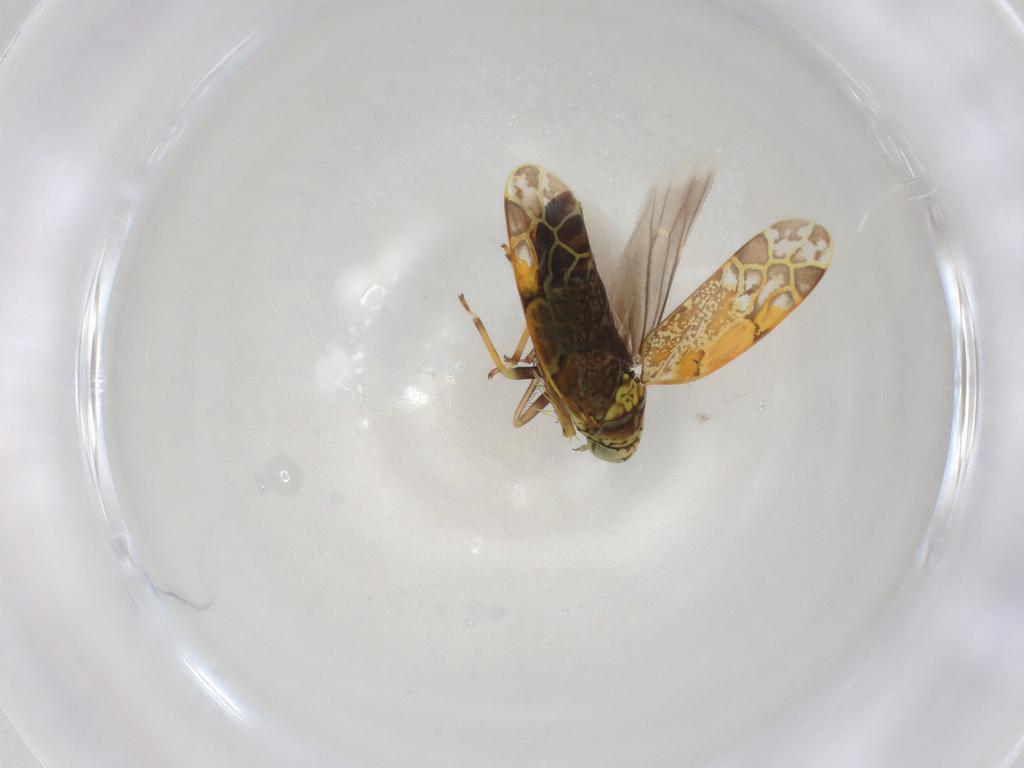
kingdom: Animalia
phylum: Arthropoda
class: Insecta
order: Hemiptera
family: Cicadellidae
